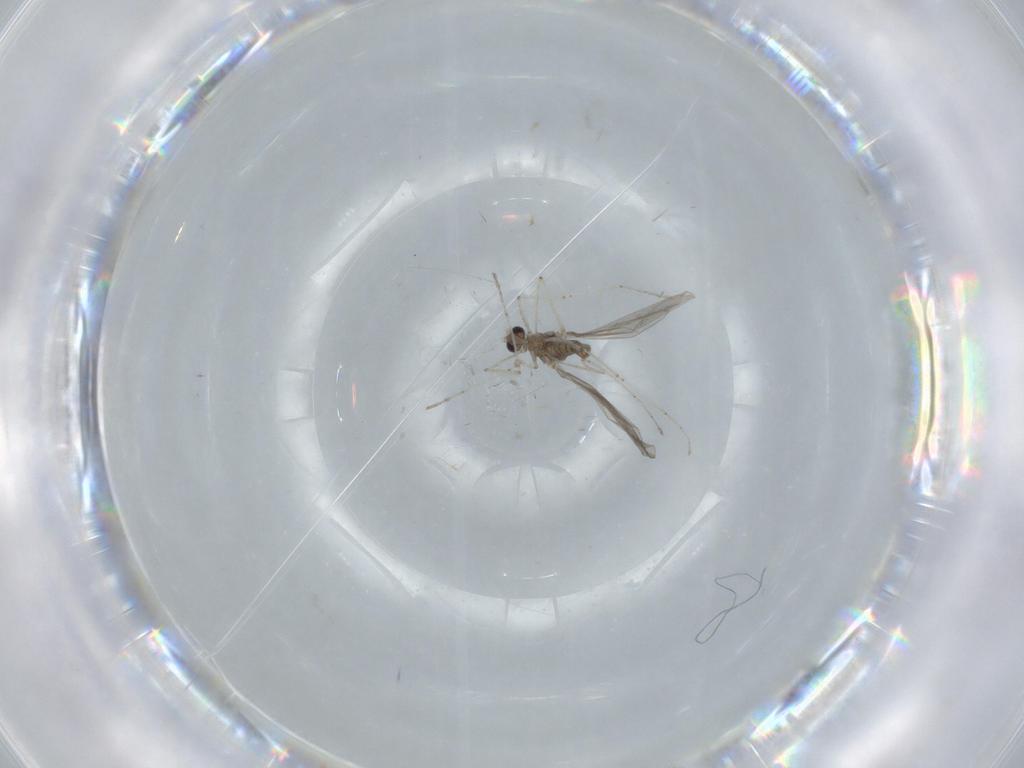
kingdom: Animalia
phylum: Arthropoda
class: Insecta
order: Diptera
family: Cecidomyiidae
